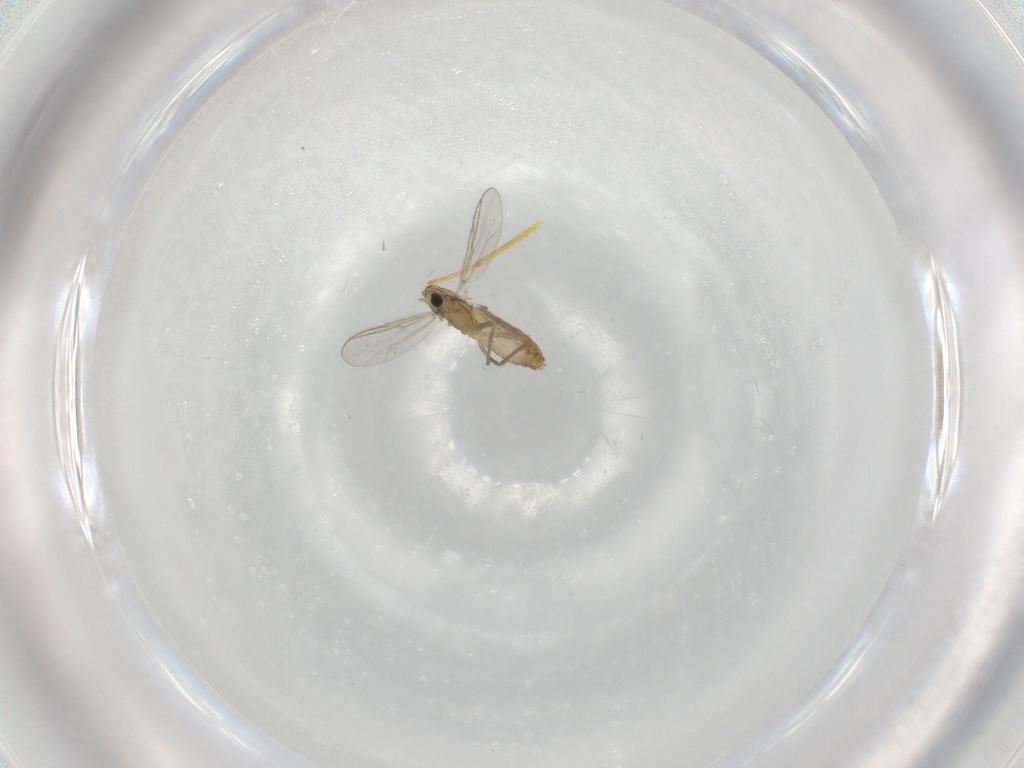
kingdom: Animalia
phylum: Arthropoda
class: Insecta
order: Diptera
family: Chironomidae
